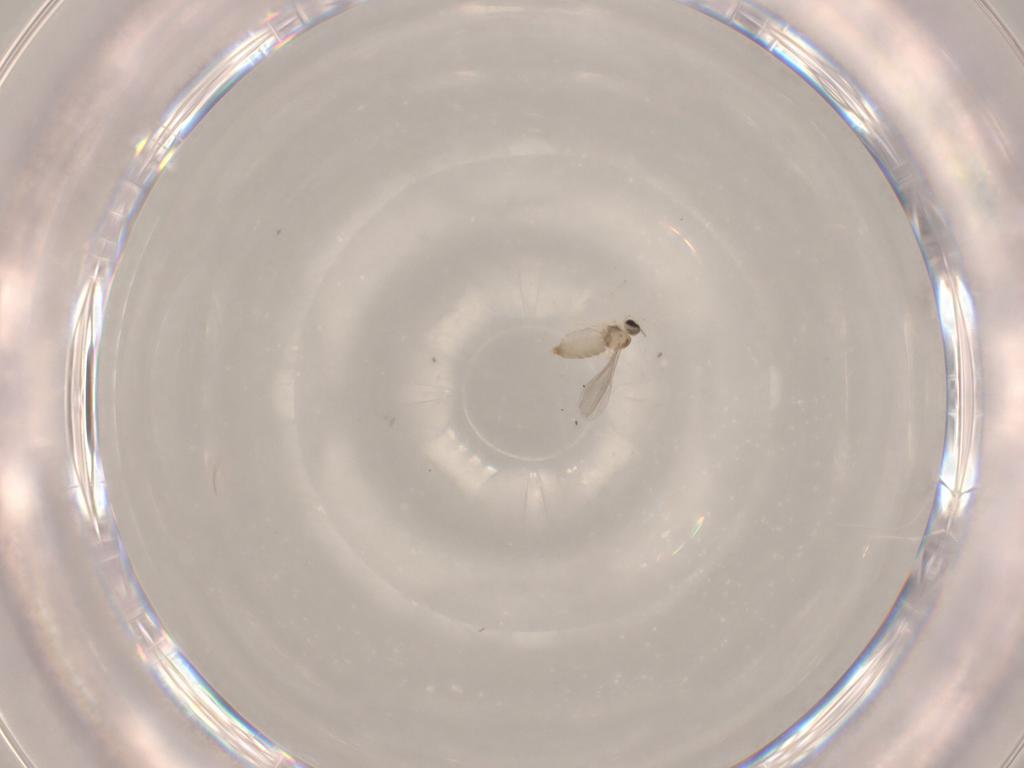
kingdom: Animalia
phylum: Arthropoda
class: Insecta
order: Diptera
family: Cecidomyiidae
